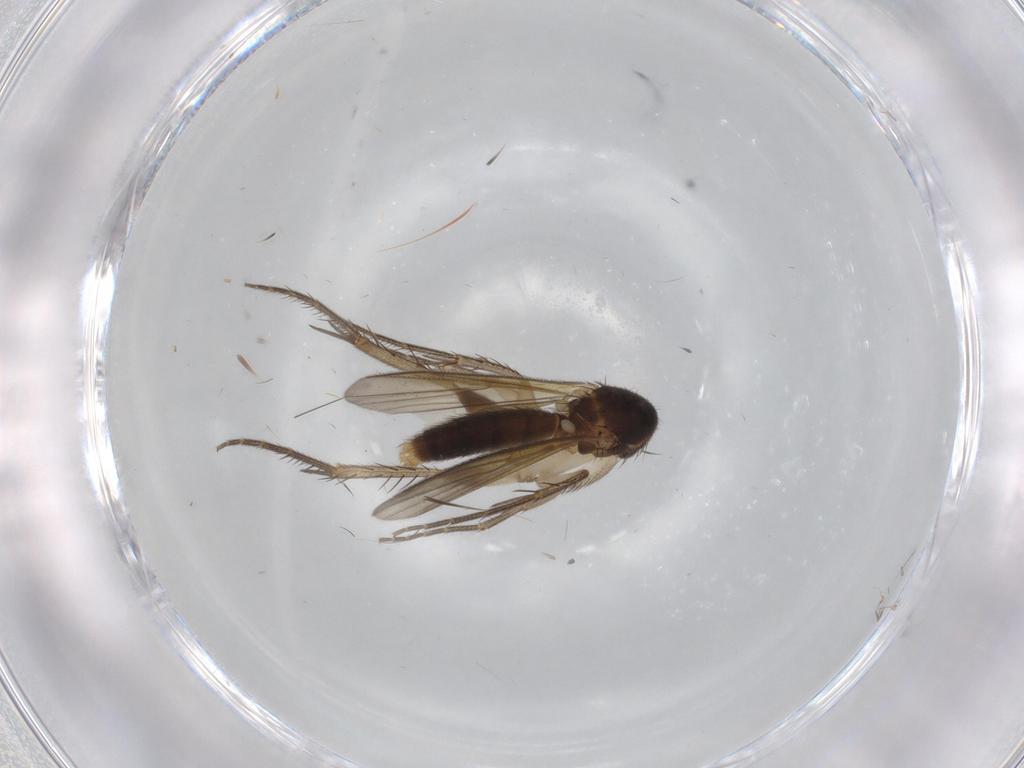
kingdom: Animalia
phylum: Arthropoda
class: Insecta
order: Diptera
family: Mycetophilidae
